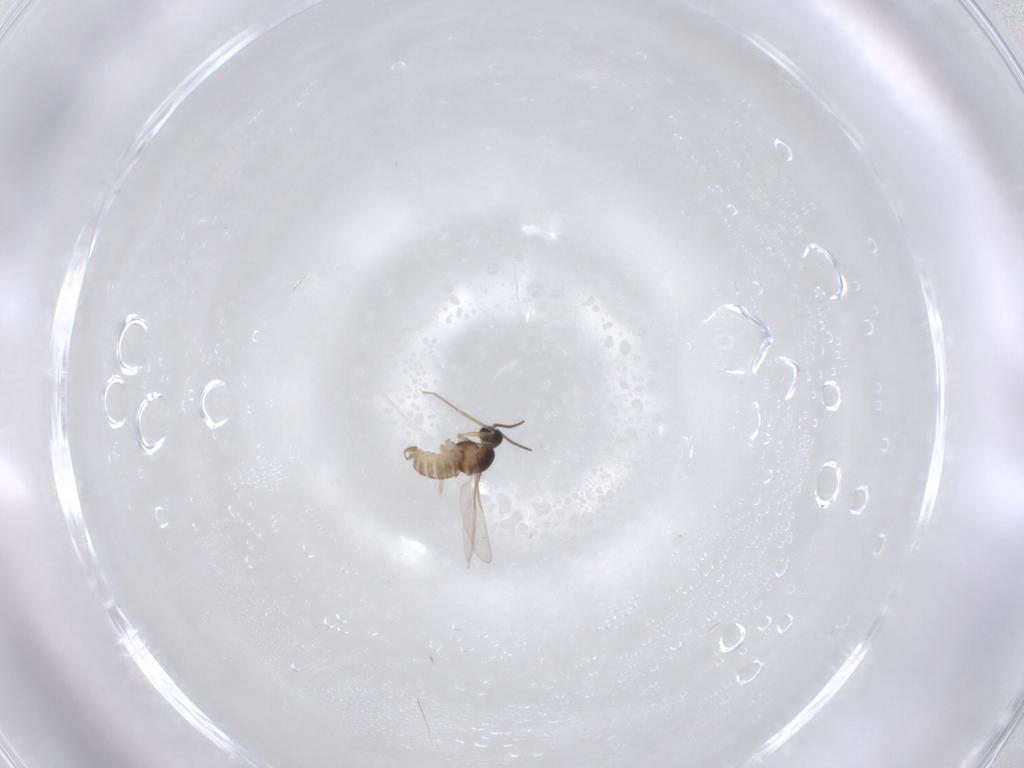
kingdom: Animalia
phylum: Arthropoda
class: Insecta
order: Diptera
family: Cecidomyiidae
